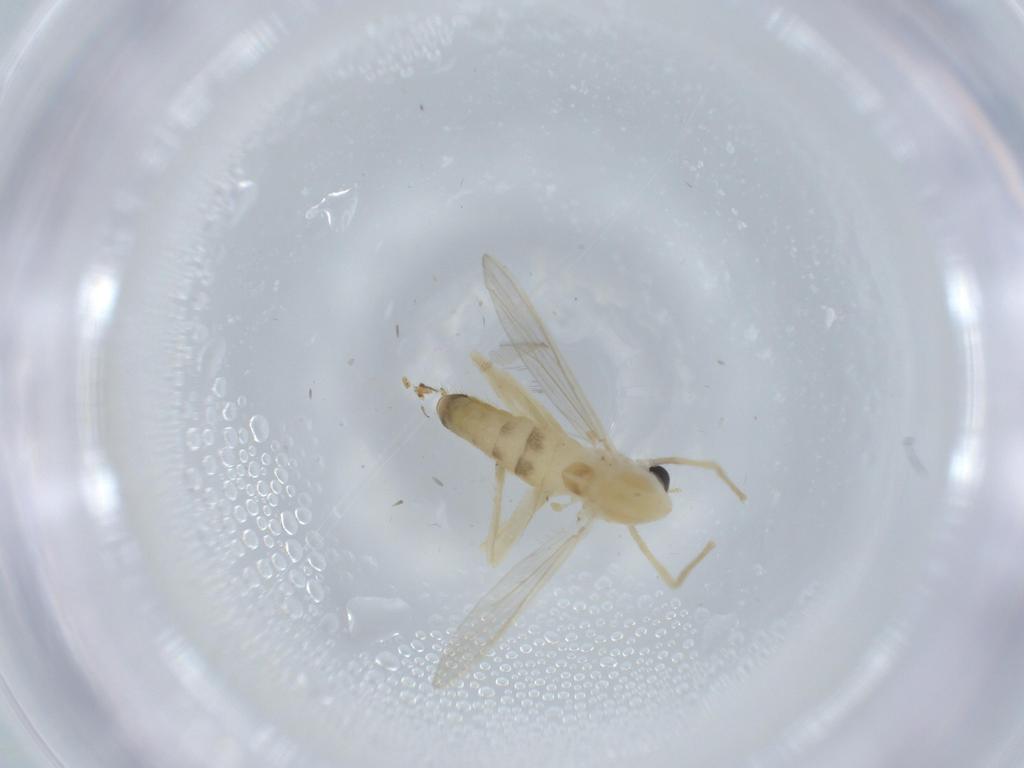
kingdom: Animalia
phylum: Arthropoda
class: Insecta
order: Diptera
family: Chironomidae
